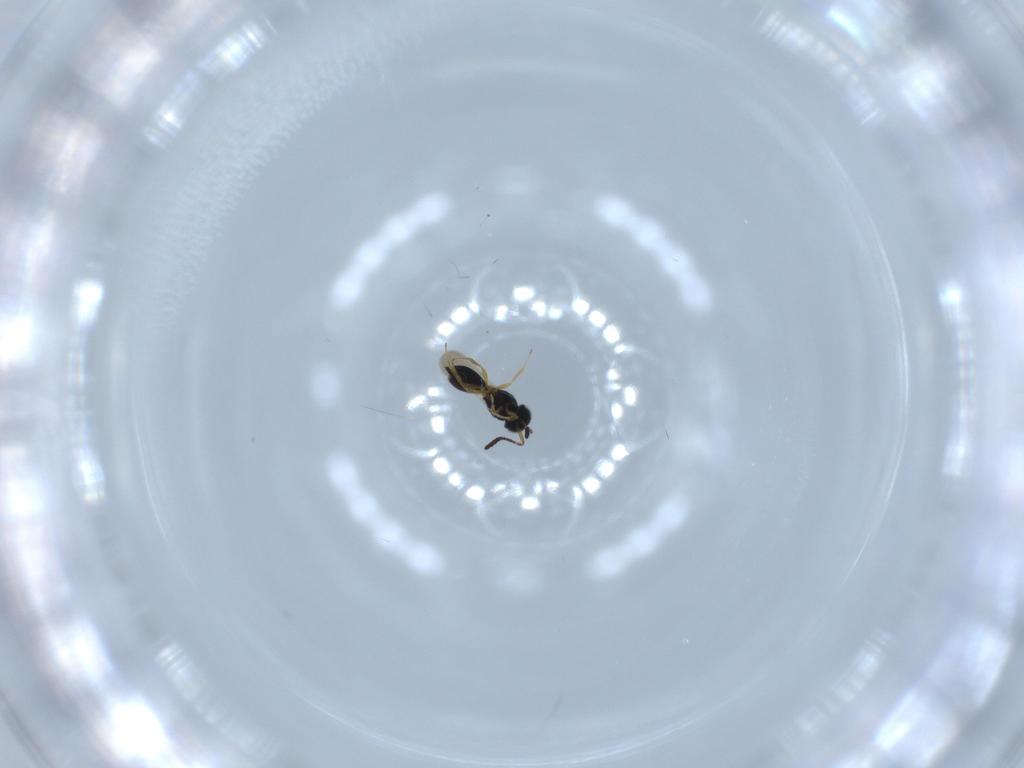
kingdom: Animalia
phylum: Arthropoda
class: Insecta
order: Hymenoptera
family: Scelionidae
